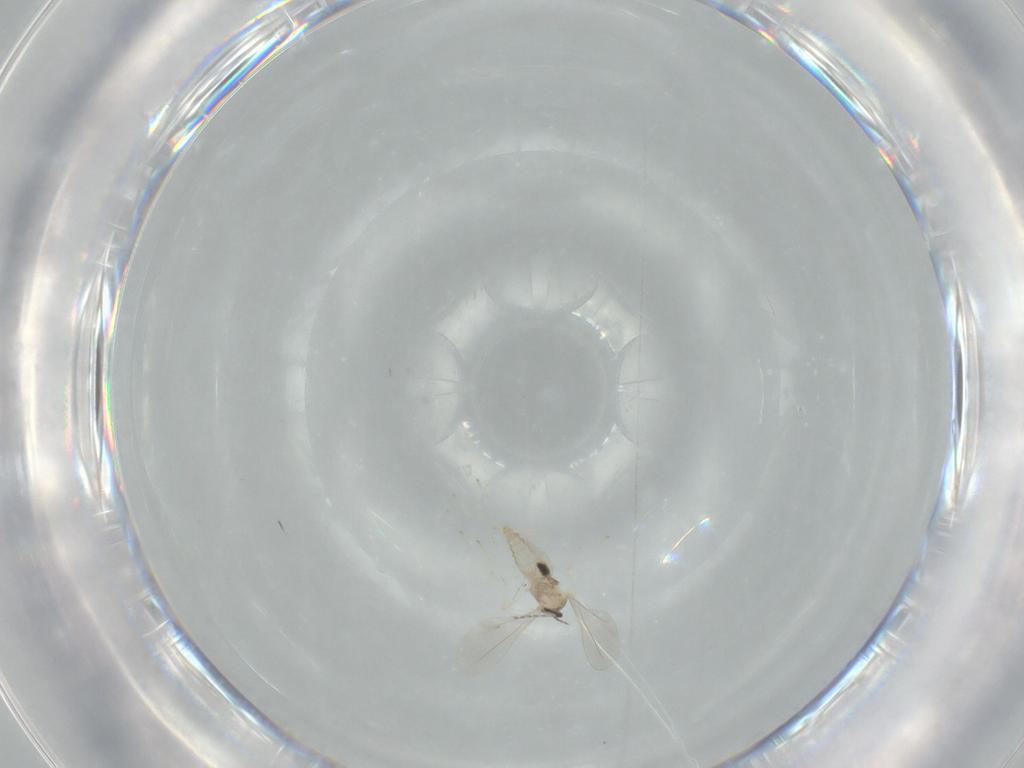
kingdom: Animalia
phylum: Arthropoda
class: Insecta
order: Diptera
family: Cecidomyiidae
